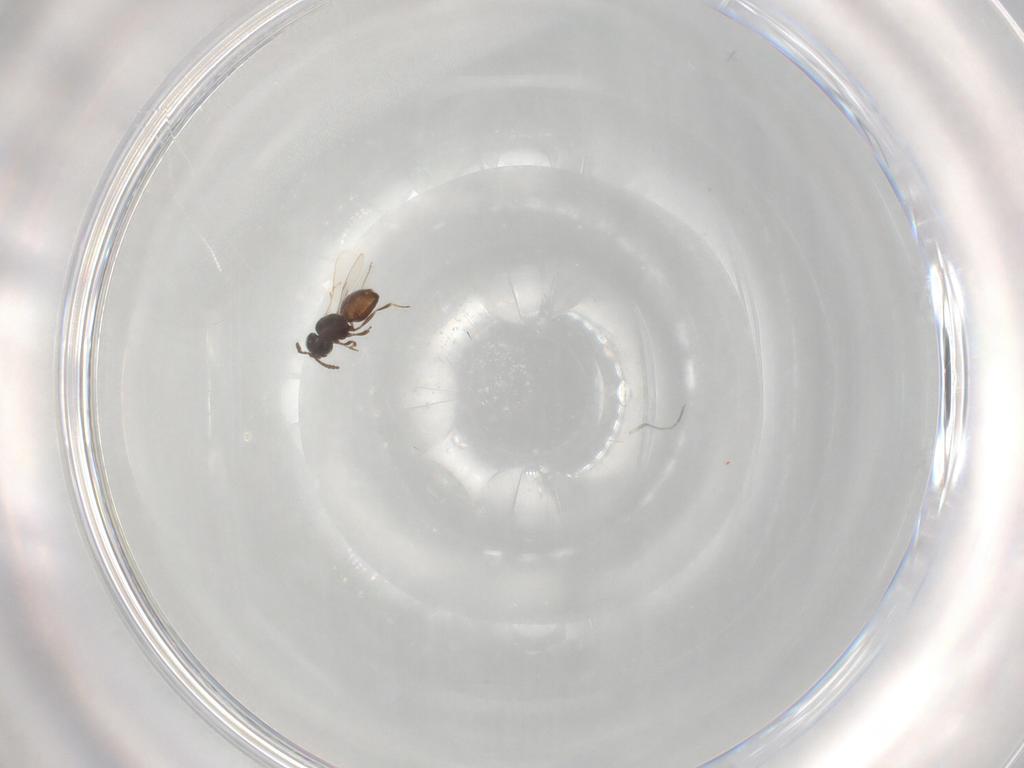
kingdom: Animalia
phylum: Arthropoda
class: Insecta
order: Hymenoptera
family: Scelionidae
